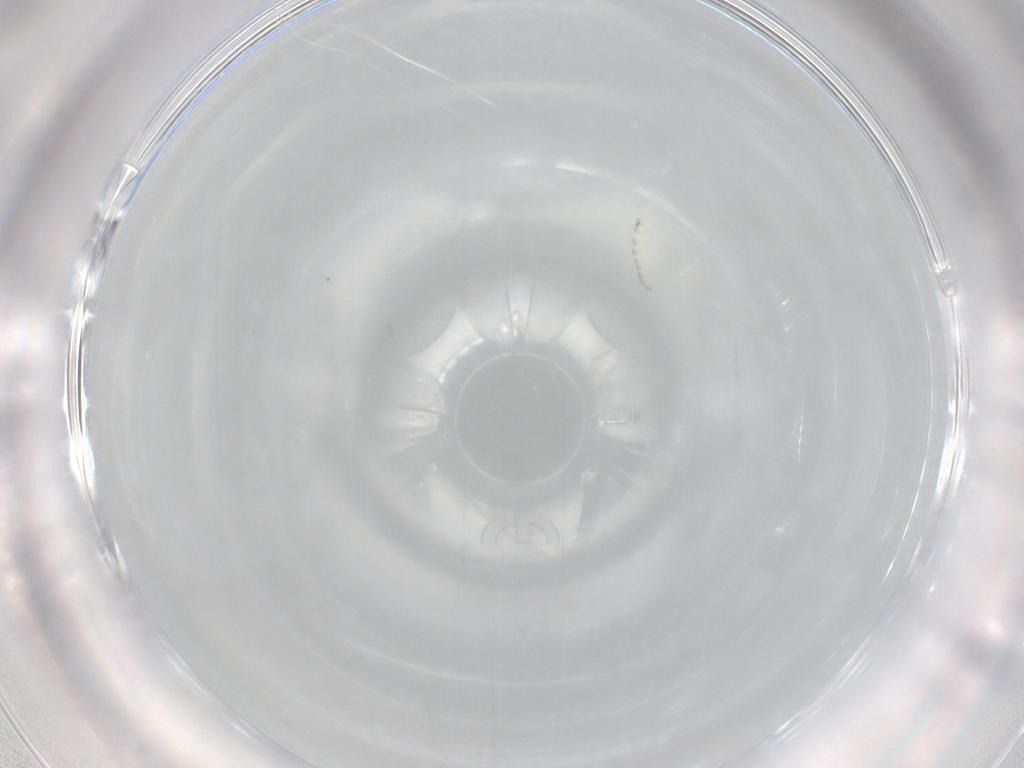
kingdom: Animalia
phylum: Arthropoda
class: Collembola
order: Entomobryomorpha
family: Isotomidae
